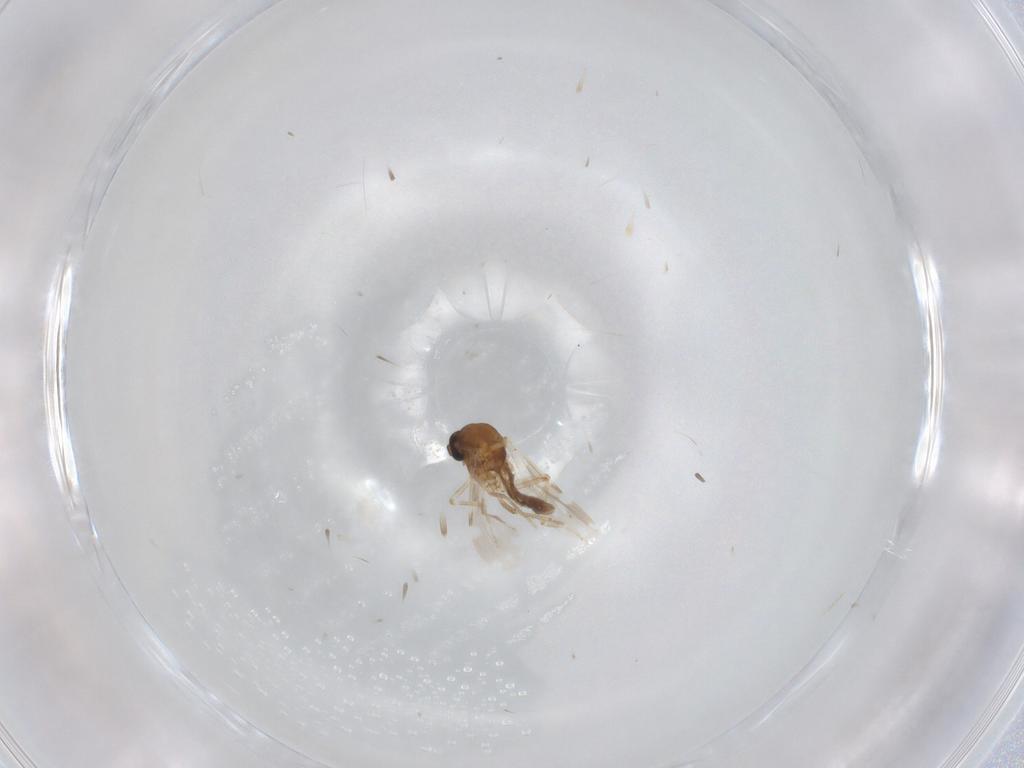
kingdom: Animalia
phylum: Arthropoda
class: Insecta
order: Diptera
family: Ceratopogonidae
